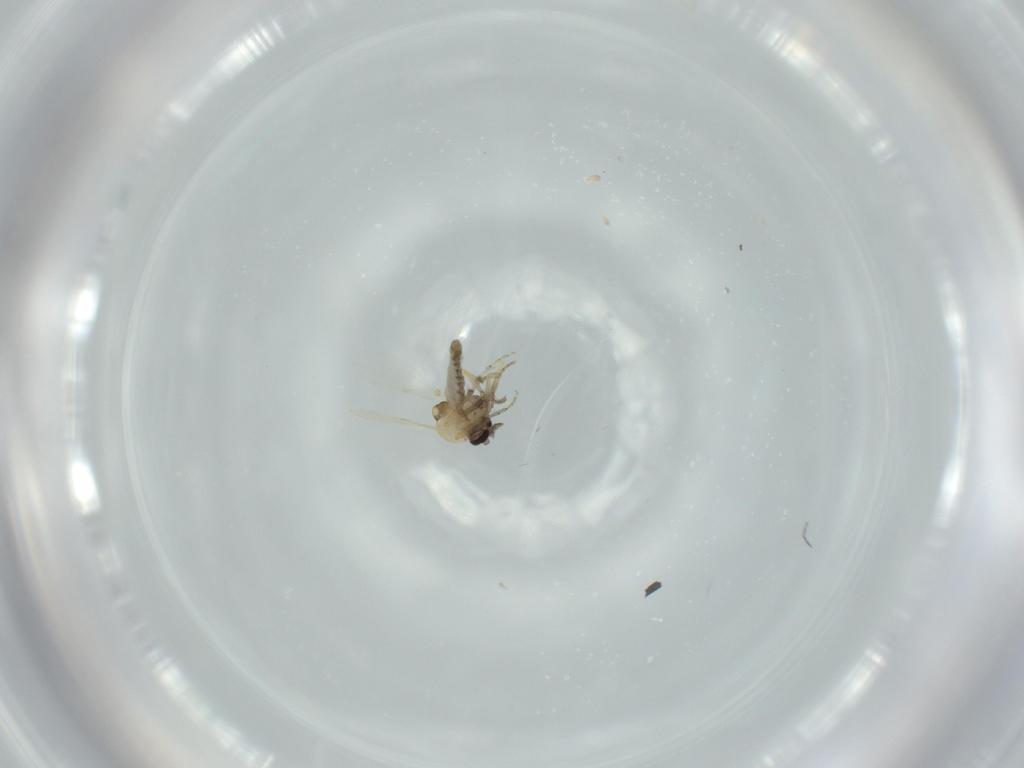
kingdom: Animalia
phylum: Arthropoda
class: Insecta
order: Diptera
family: Ceratopogonidae
